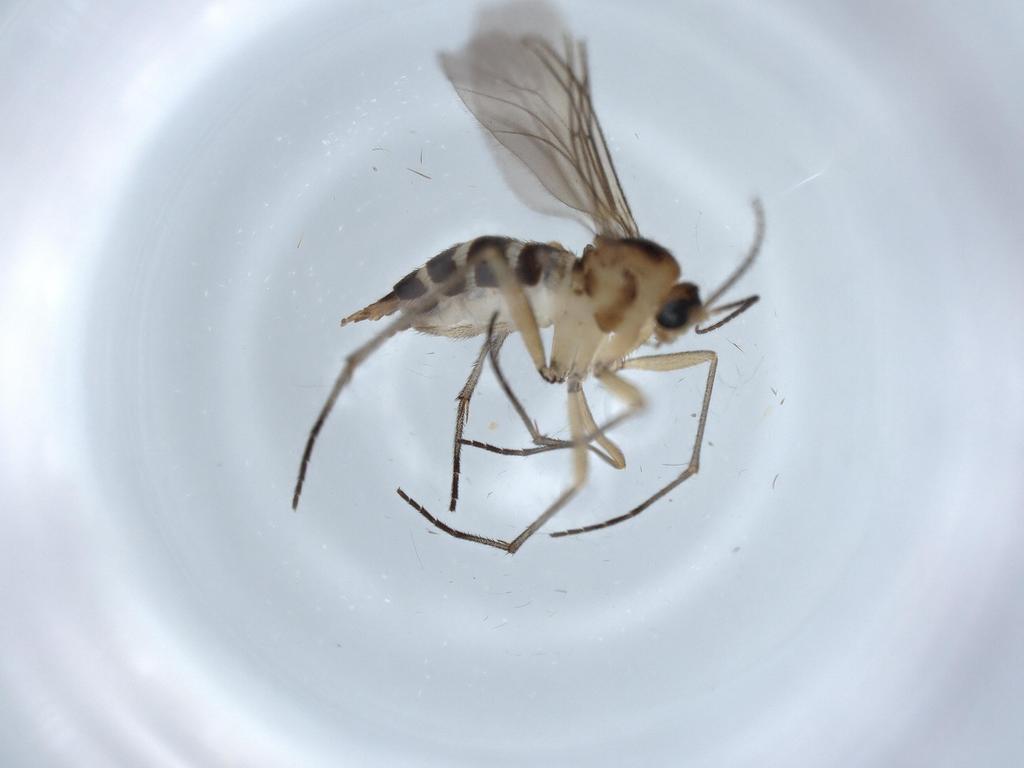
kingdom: Animalia
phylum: Arthropoda
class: Insecta
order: Diptera
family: Sciaridae
